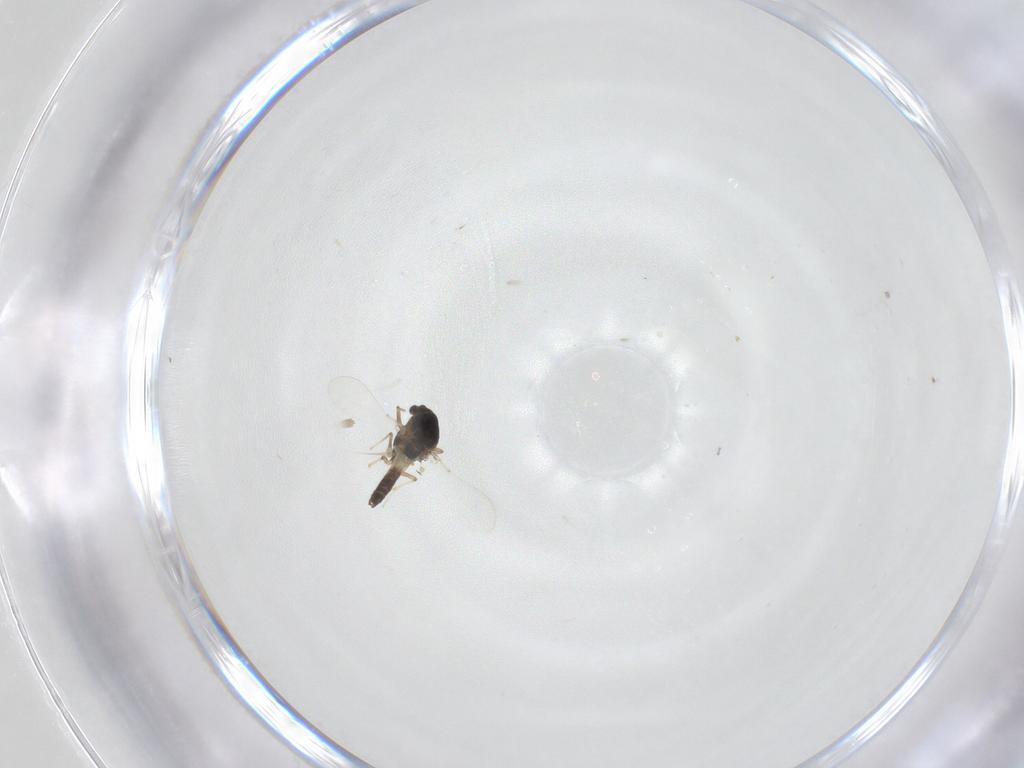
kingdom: Animalia
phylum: Arthropoda
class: Insecta
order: Diptera
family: Chironomidae
